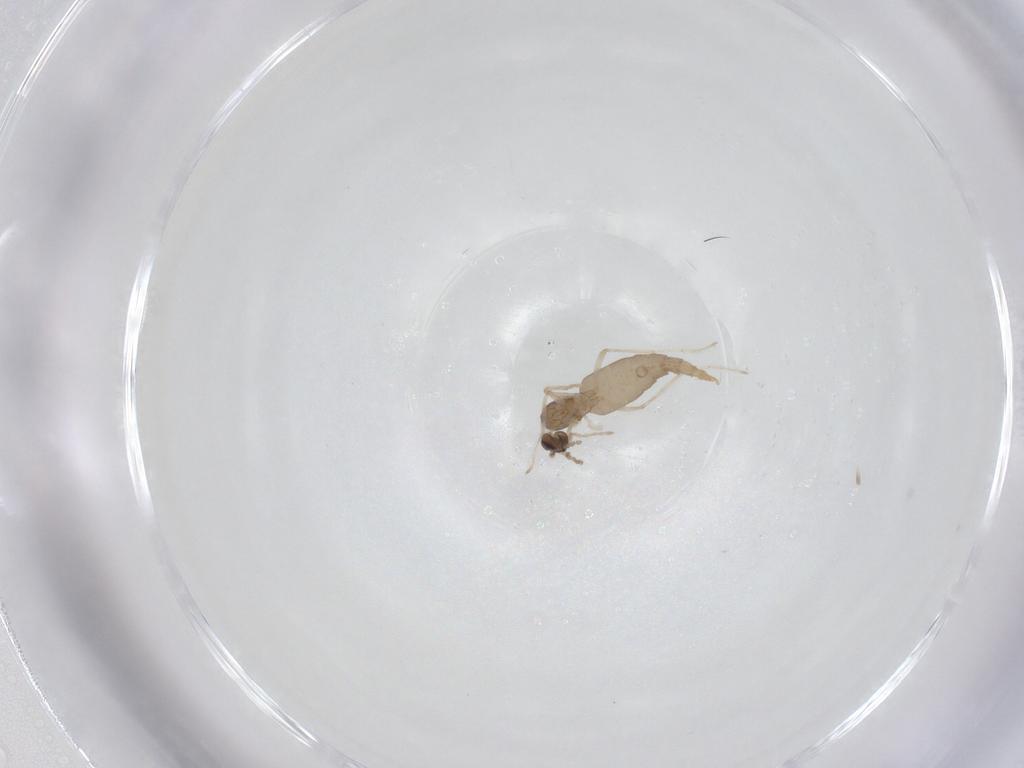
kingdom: Animalia
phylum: Arthropoda
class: Insecta
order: Diptera
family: Cecidomyiidae
